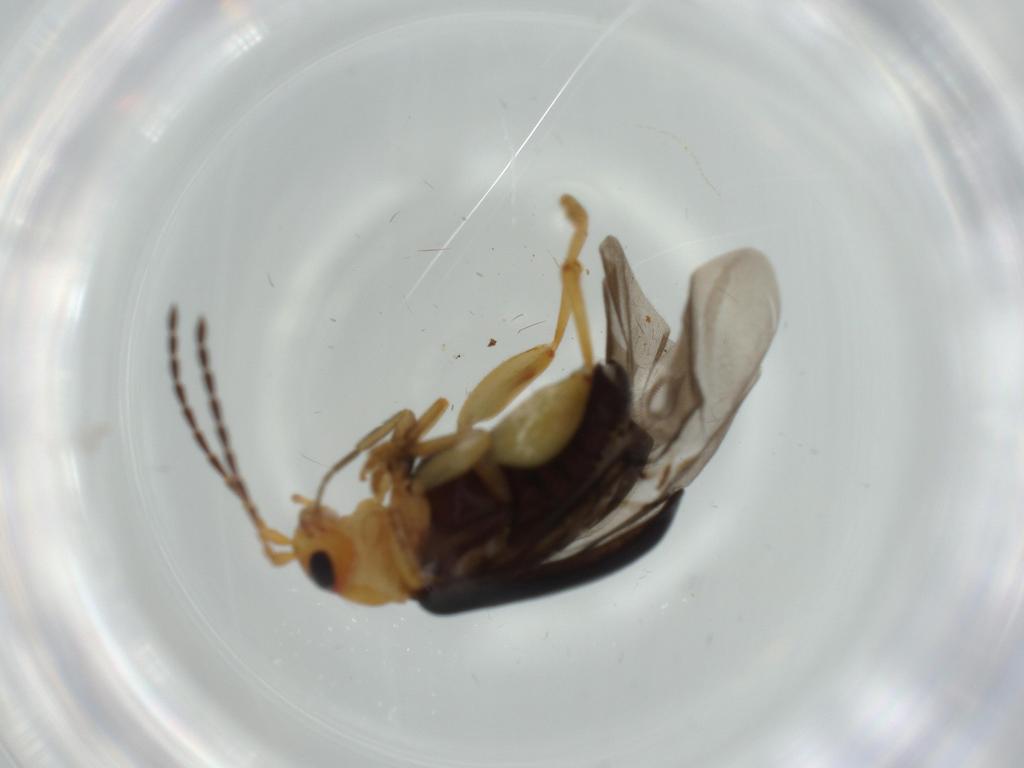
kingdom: Animalia
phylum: Arthropoda
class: Insecta
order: Coleoptera
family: Chrysomelidae
